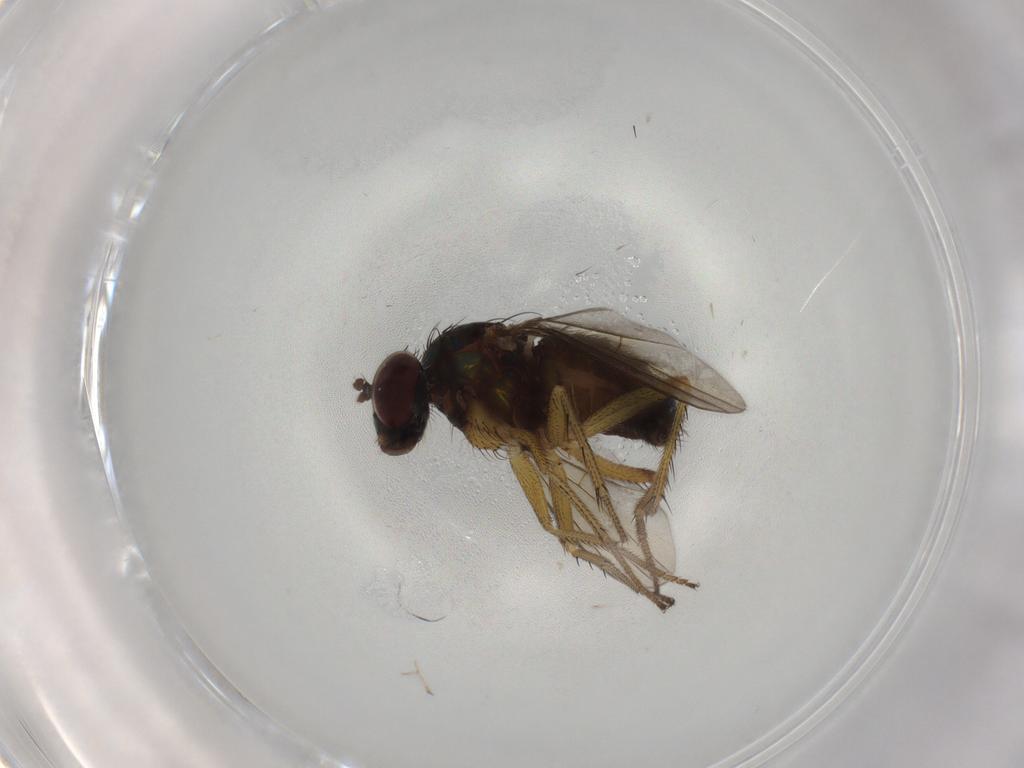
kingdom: Animalia
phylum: Arthropoda
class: Insecta
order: Diptera
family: Dolichopodidae
